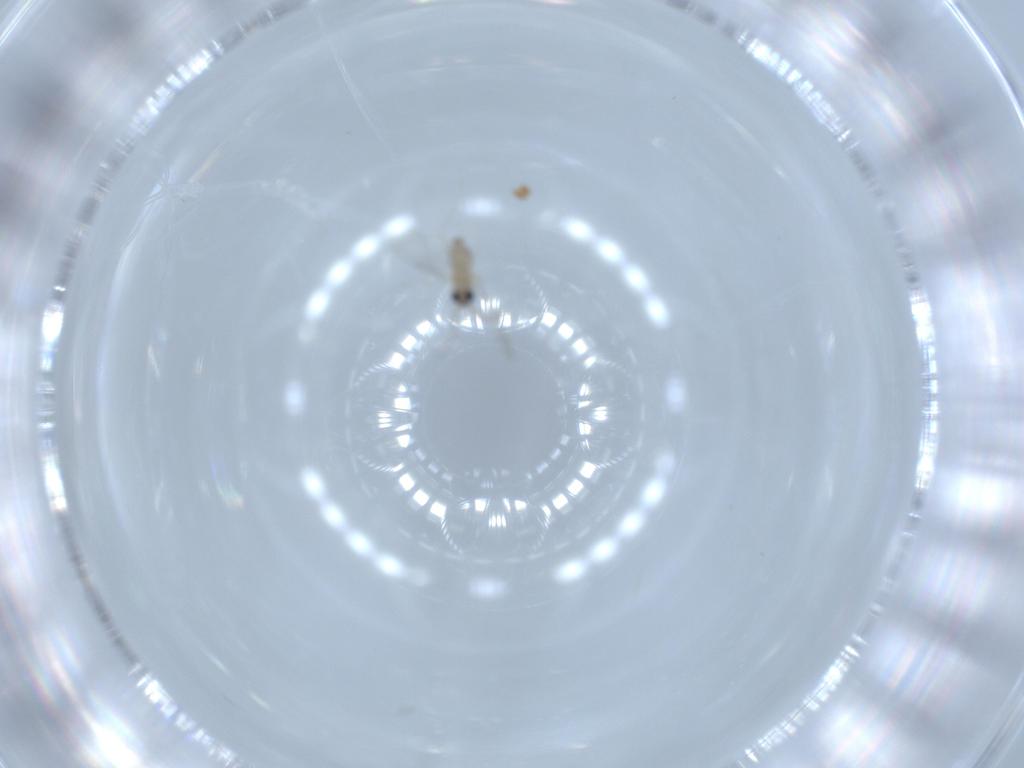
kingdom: Animalia
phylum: Arthropoda
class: Insecta
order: Diptera
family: Cecidomyiidae
